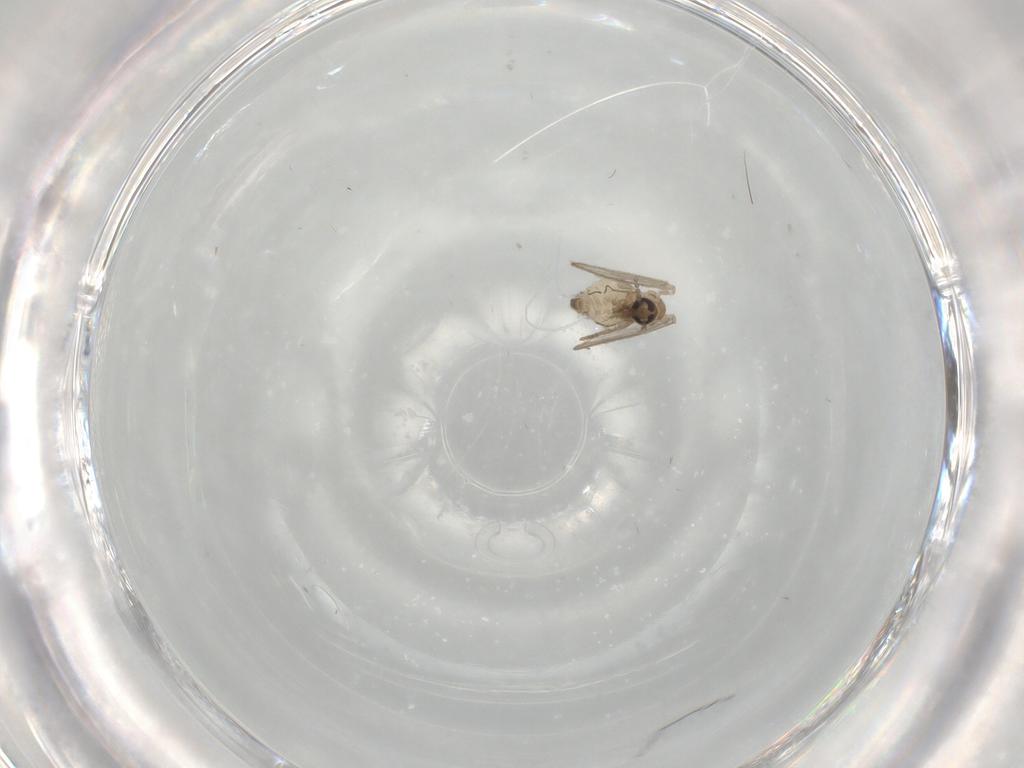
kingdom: Animalia
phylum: Arthropoda
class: Insecta
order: Diptera
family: Psychodidae
